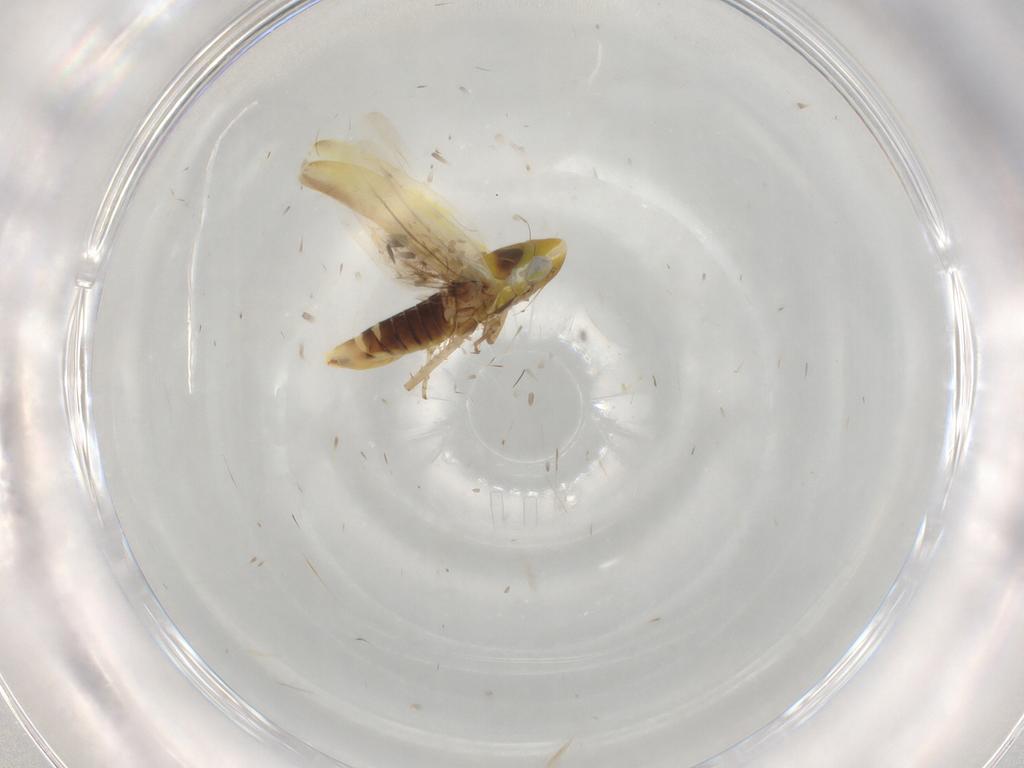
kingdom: Animalia
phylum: Arthropoda
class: Insecta
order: Hemiptera
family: Cicadellidae
